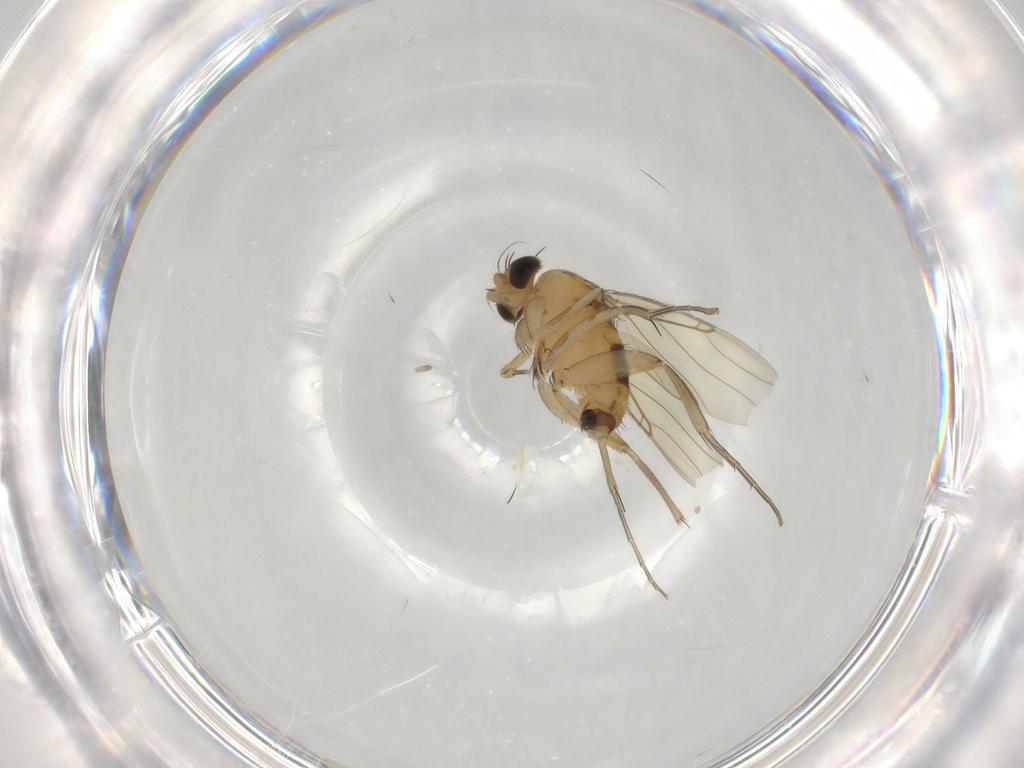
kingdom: Animalia
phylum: Arthropoda
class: Insecta
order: Diptera
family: Phoridae
